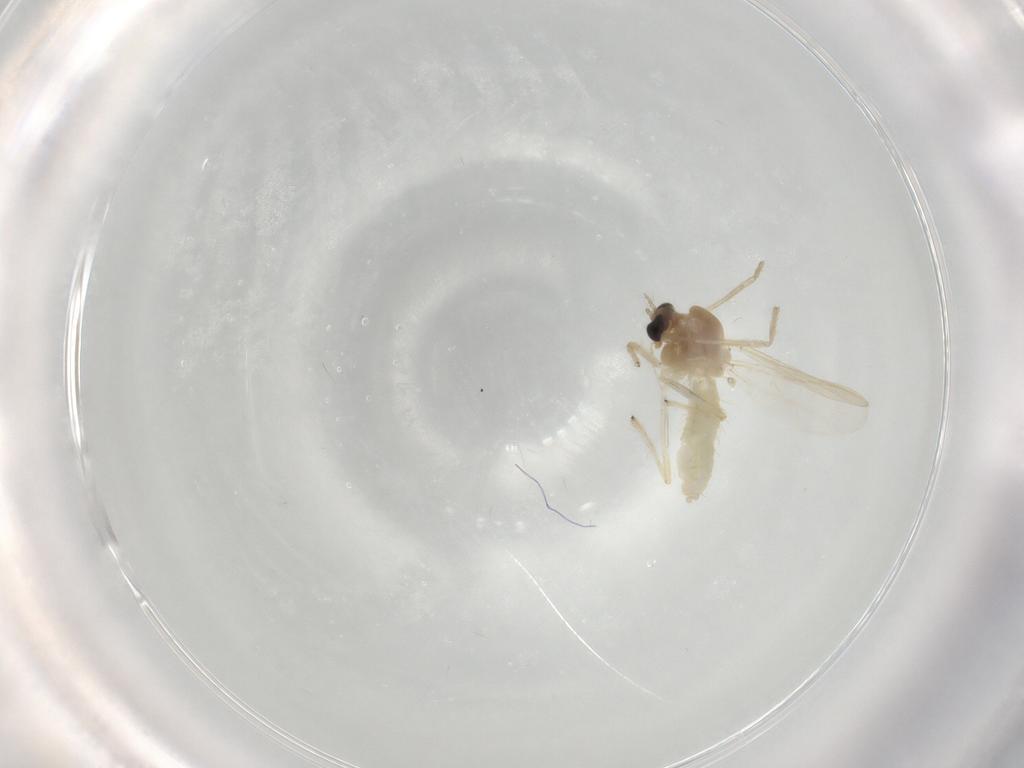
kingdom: Animalia
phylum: Arthropoda
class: Insecta
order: Diptera
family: Chironomidae
